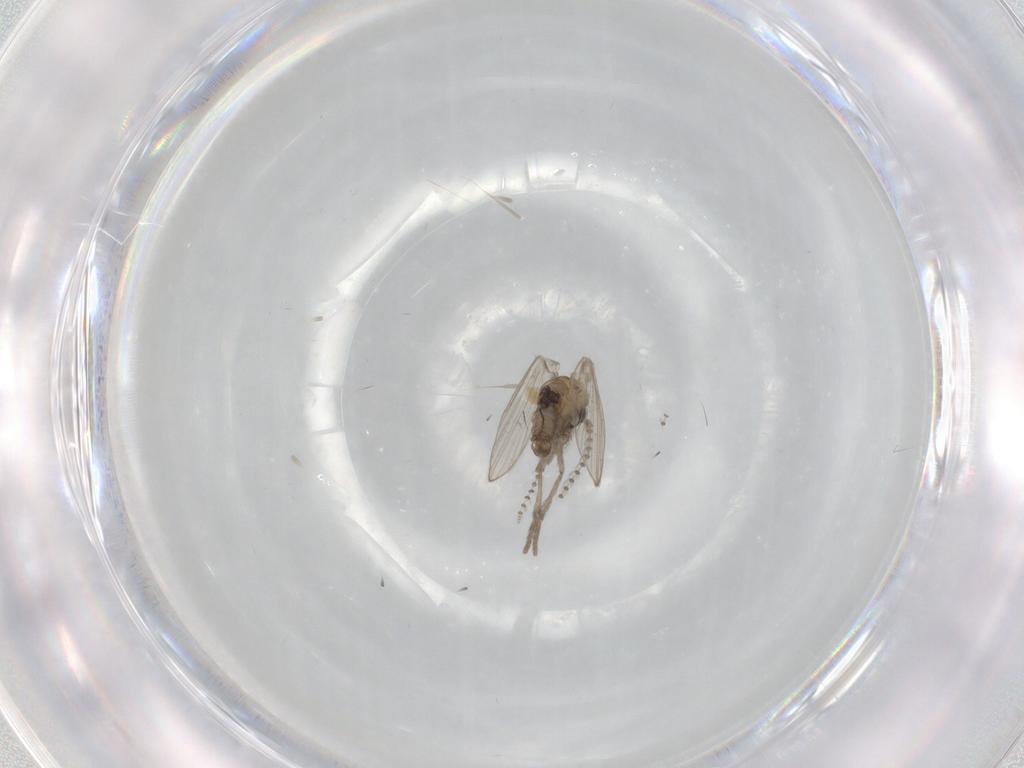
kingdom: Animalia
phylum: Arthropoda
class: Insecta
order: Diptera
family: Psychodidae
